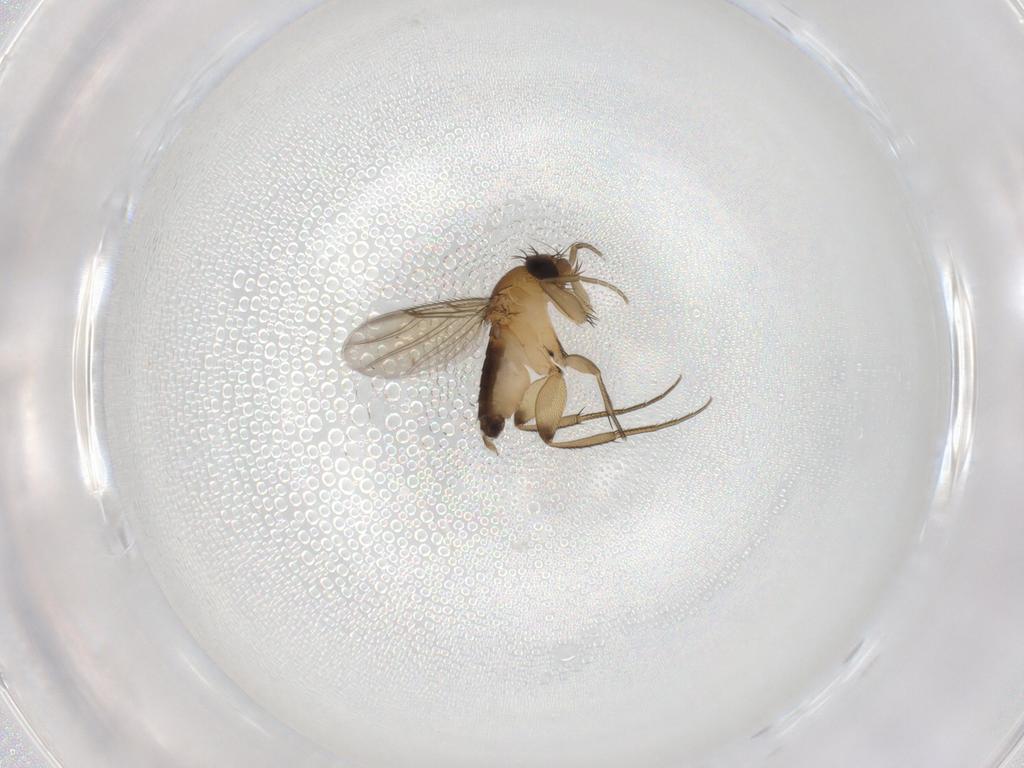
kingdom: Animalia
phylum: Arthropoda
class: Insecta
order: Diptera
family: Phoridae
